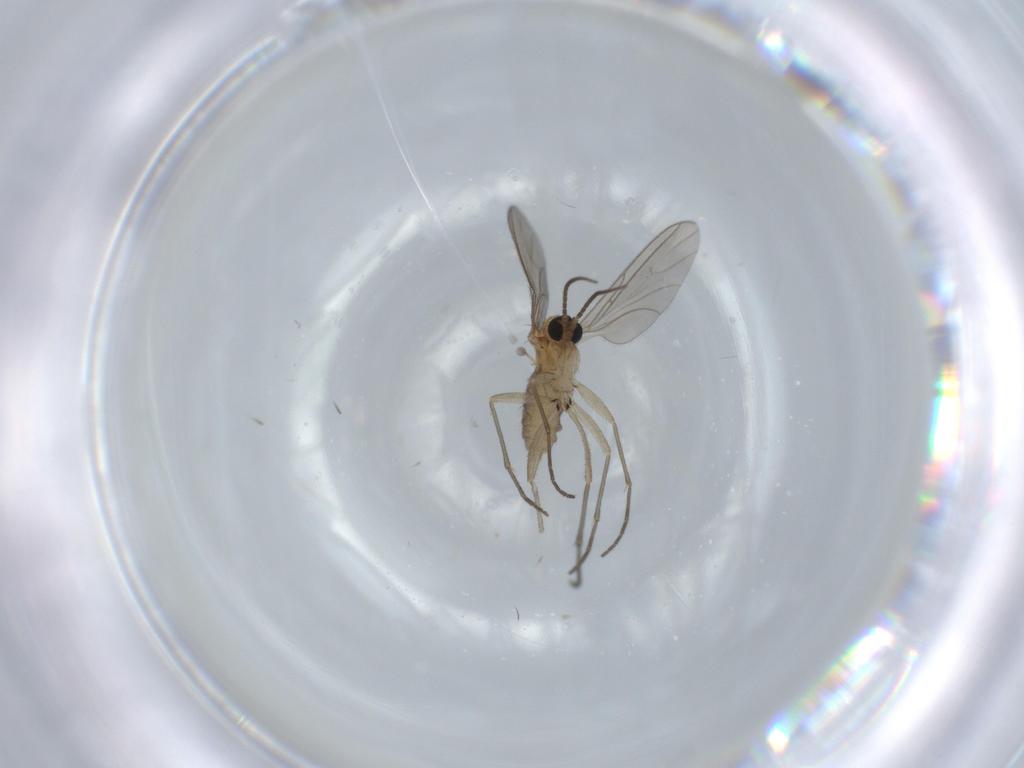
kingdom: Animalia
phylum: Arthropoda
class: Insecta
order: Diptera
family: Sciaridae
